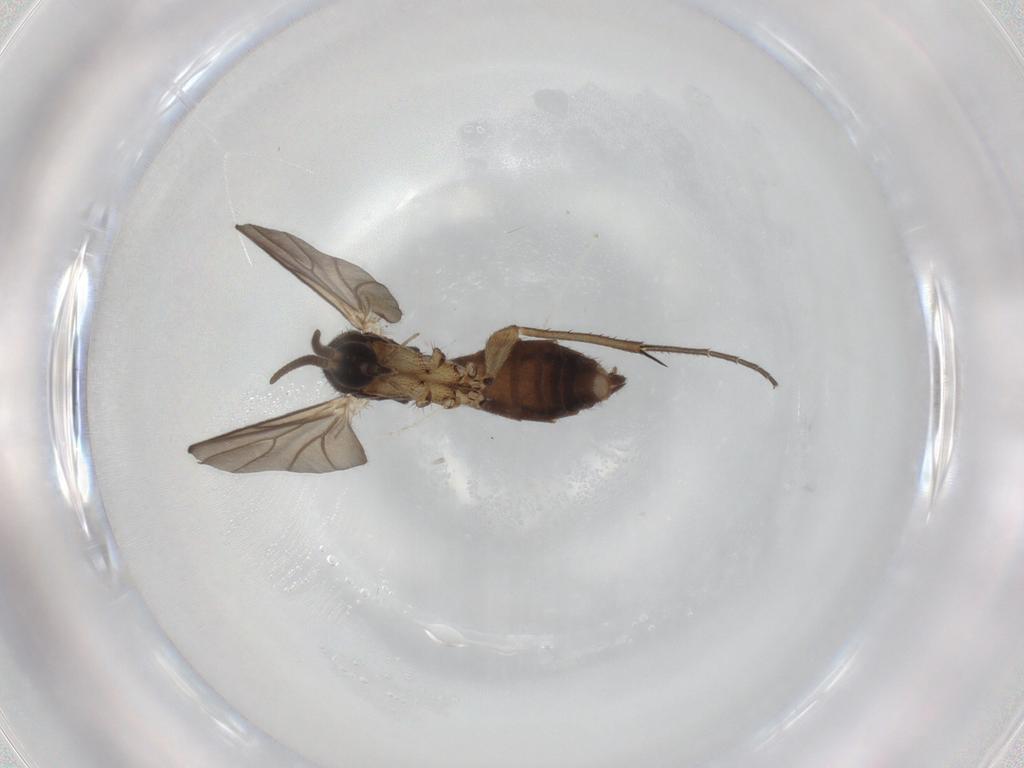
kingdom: Animalia
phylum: Arthropoda
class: Insecta
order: Diptera
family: Mycetophilidae
